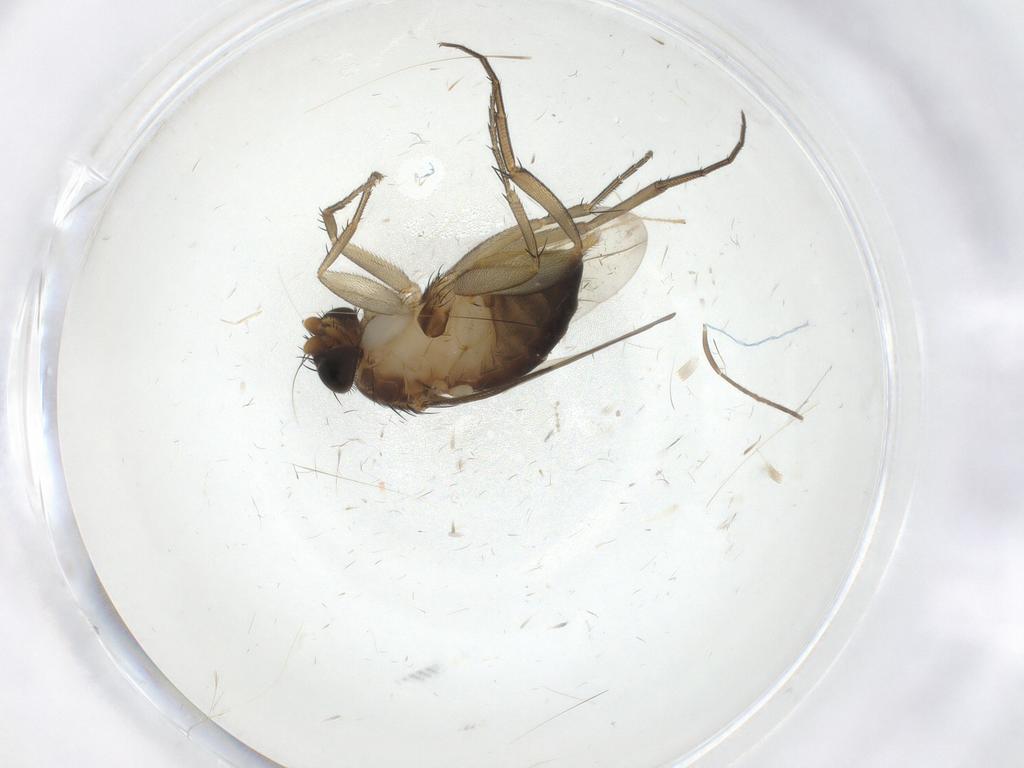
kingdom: Animalia
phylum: Arthropoda
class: Insecta
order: Diptera
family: Phoridae
